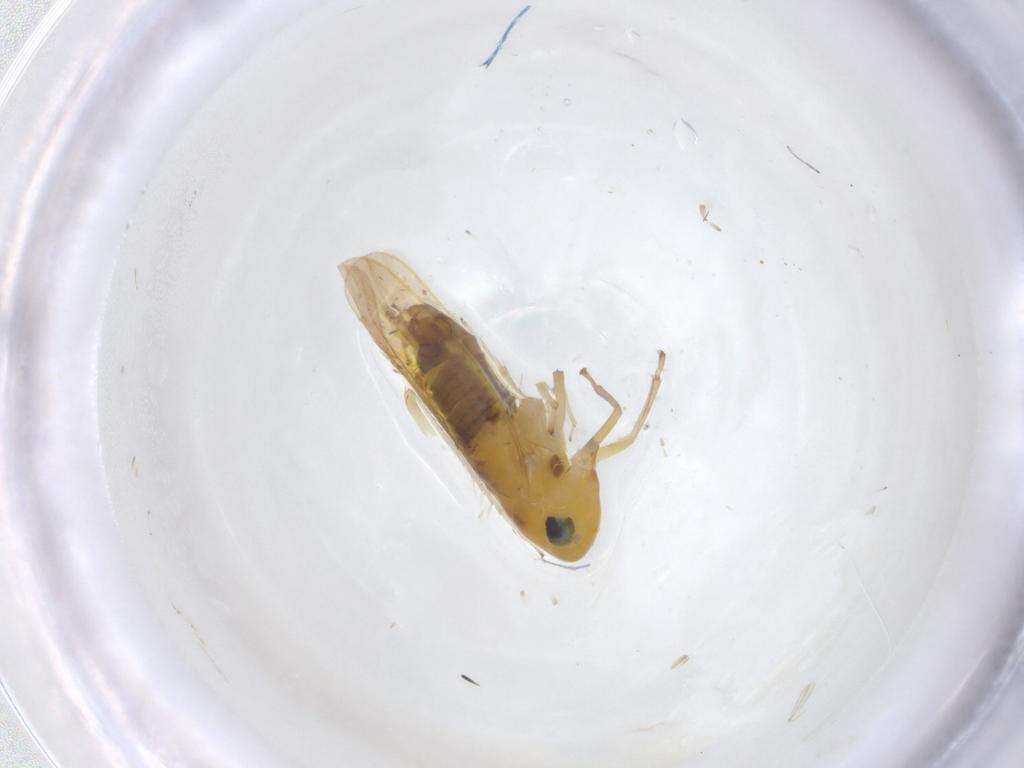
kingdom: Animalia
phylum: Arthropoda
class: Insecta
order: Hemiptera
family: Cicadellidae
